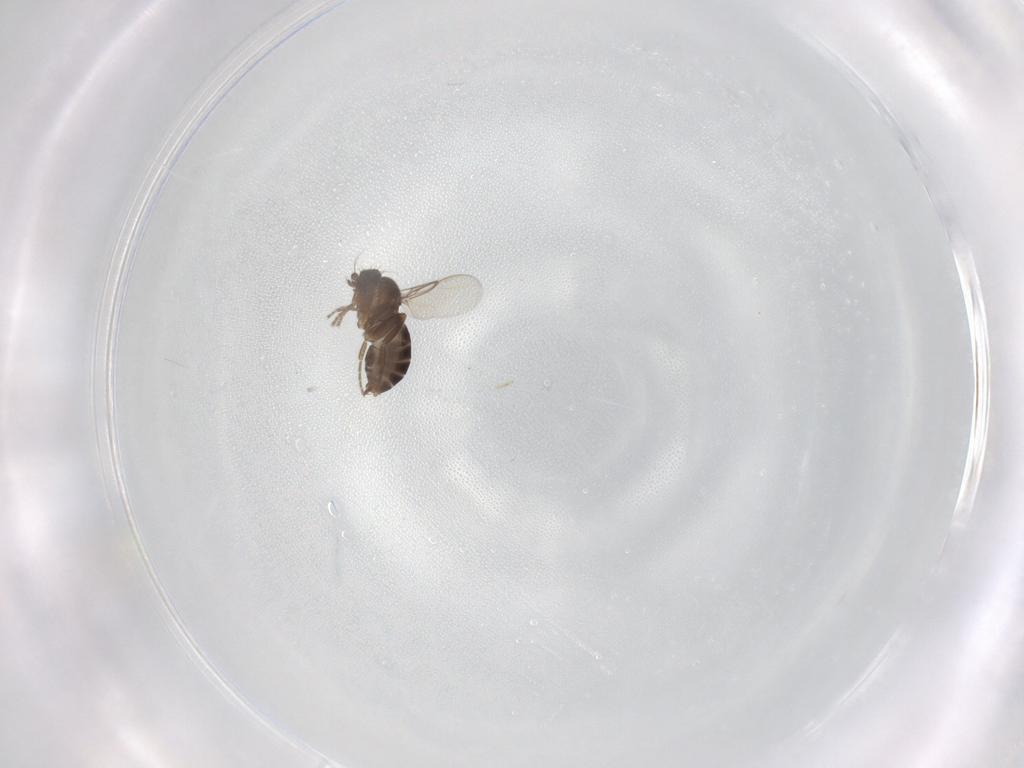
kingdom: Animalia
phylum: Arthropoda
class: Insecta
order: Diptera
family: Phoridae
